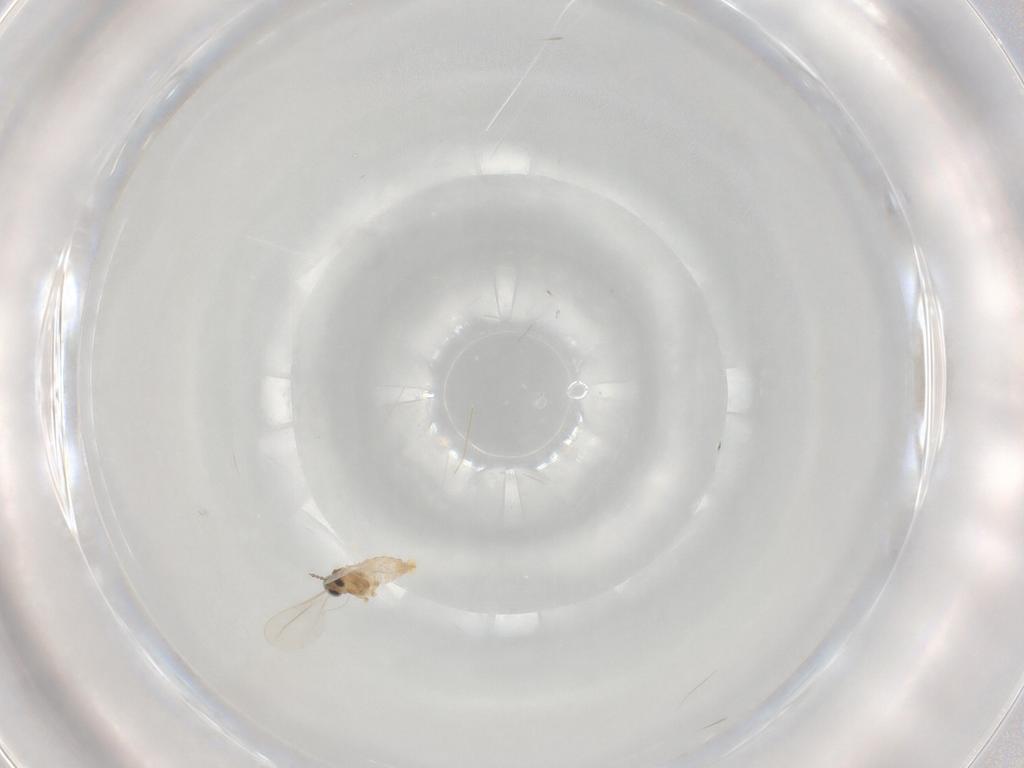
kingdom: Animalia
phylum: Arthropoda
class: Insecta
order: Diptera
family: Cecidomyiidae
